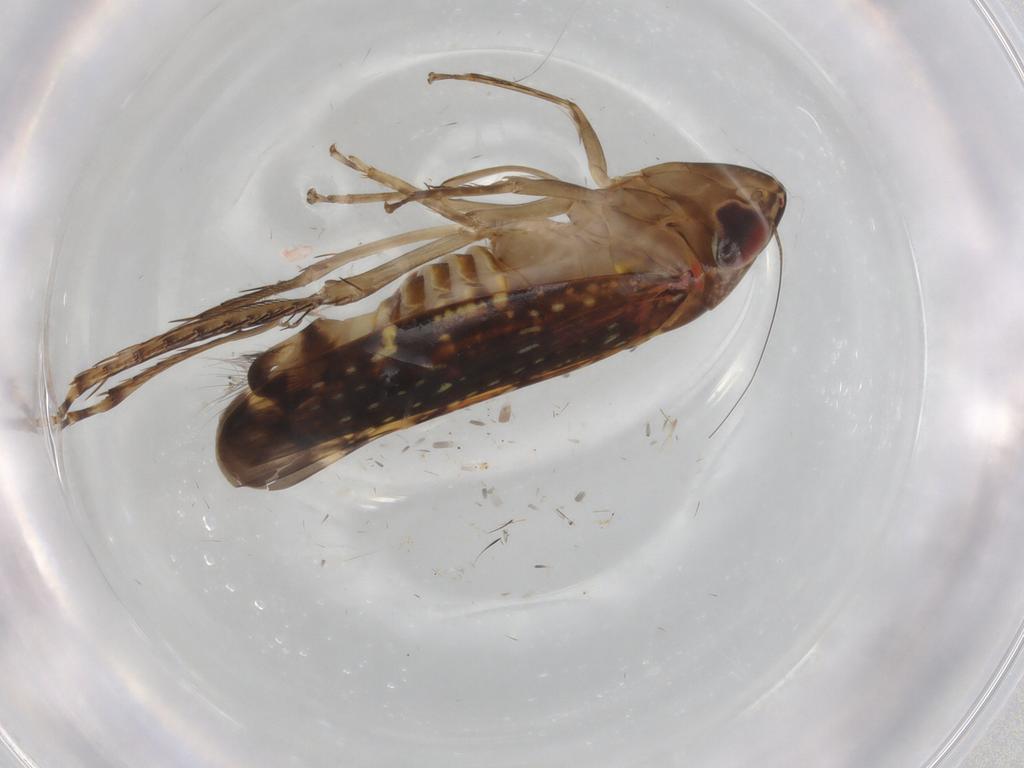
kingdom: Animalia
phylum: Arthropoda
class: Insecta
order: Hemiptera
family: Cicadellidae
